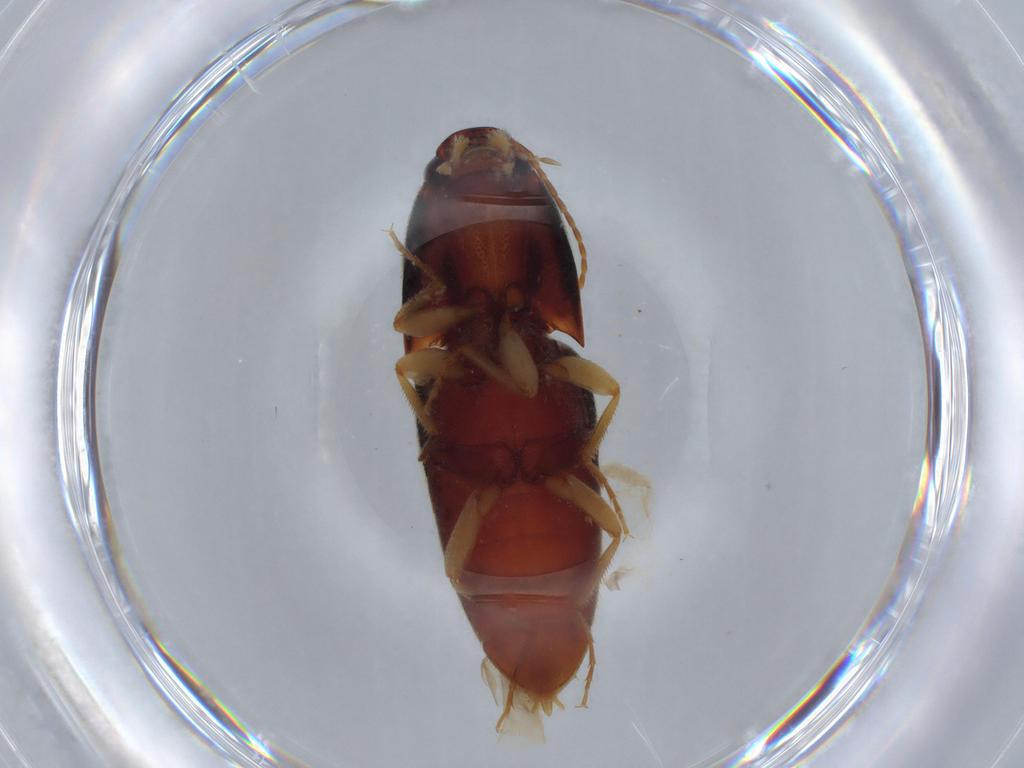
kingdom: Animalia
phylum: Arthropoda
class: Insecta
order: Coleoptera
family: Elateridae
